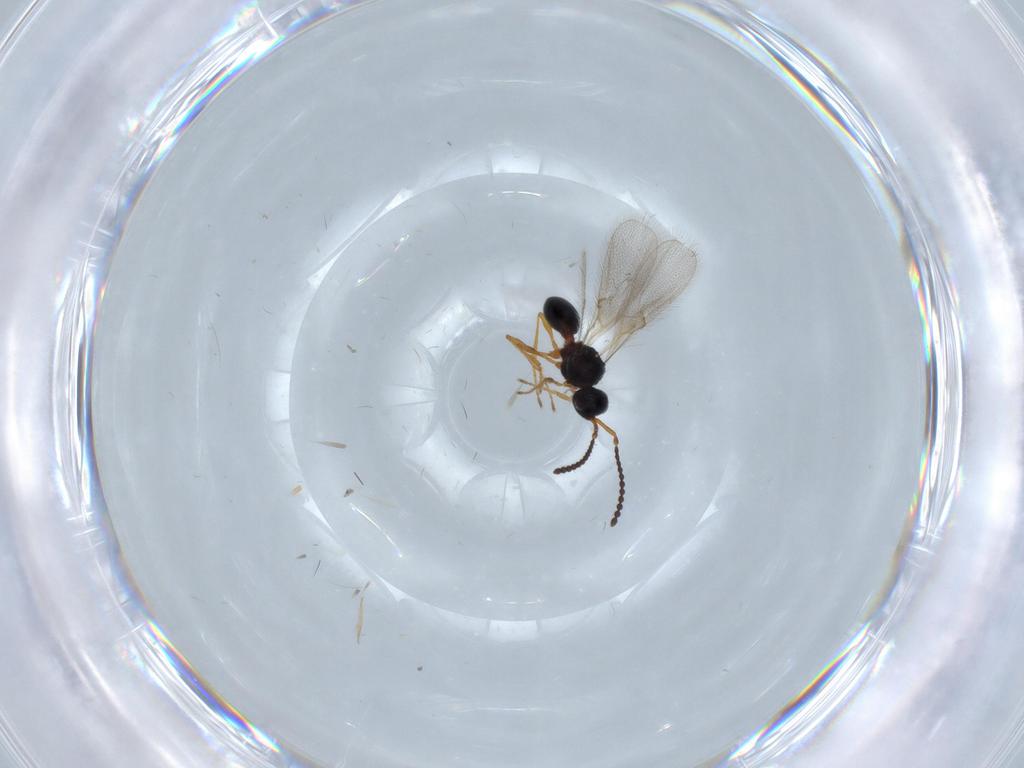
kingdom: Animalia
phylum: Arthropoda
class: Insecta
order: Hymenoptera
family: Diapriidae
